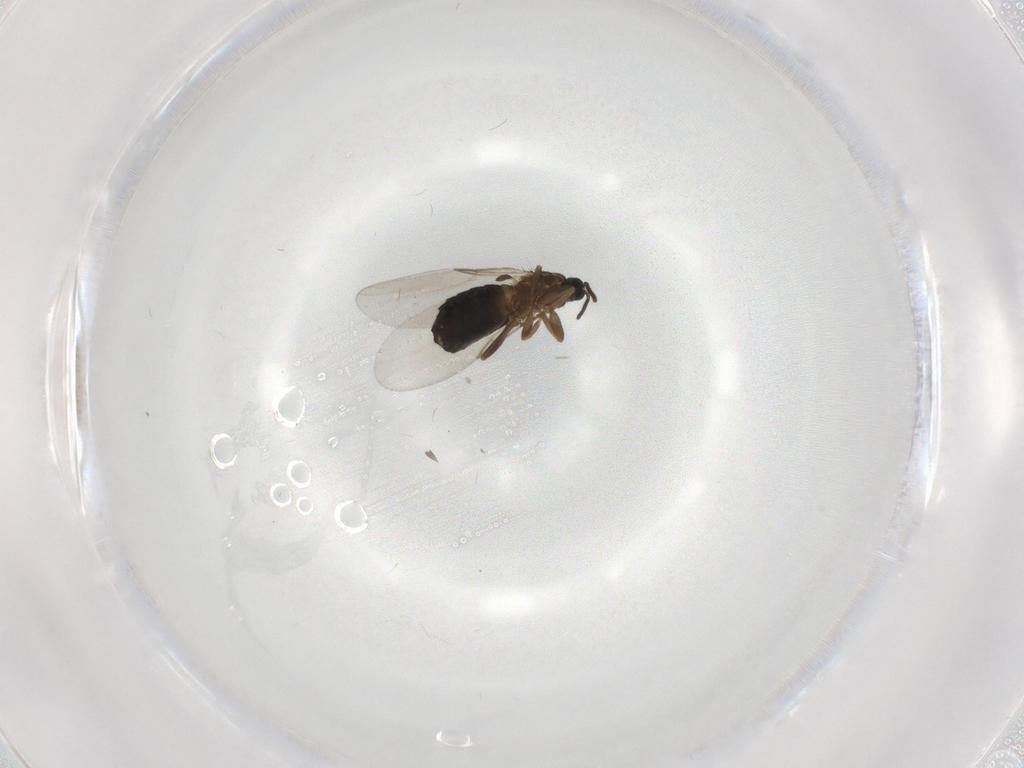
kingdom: Animalia
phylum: Arthropoda
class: Insecta
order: Diptera
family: Scatopsidae
